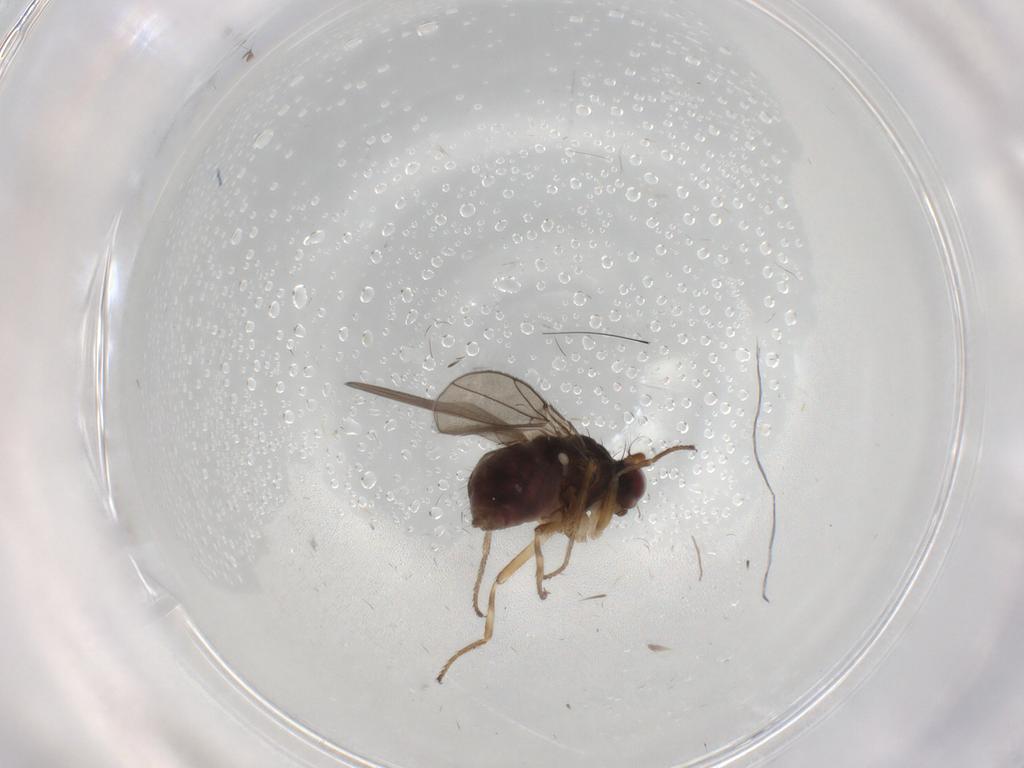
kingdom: Animalia
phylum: Arthropoda
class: Insecta
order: Diptera
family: Ephydridae
